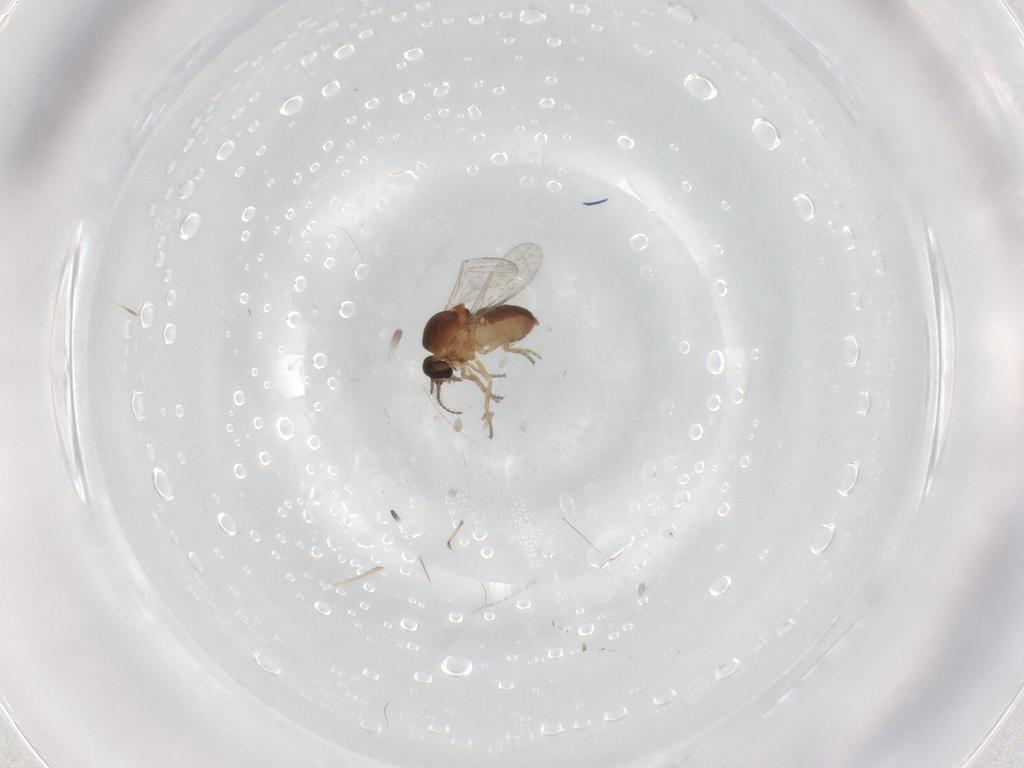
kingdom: Animalia
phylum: Arthropoda
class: Insecta
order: Diptera
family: Ceratopogonidae
